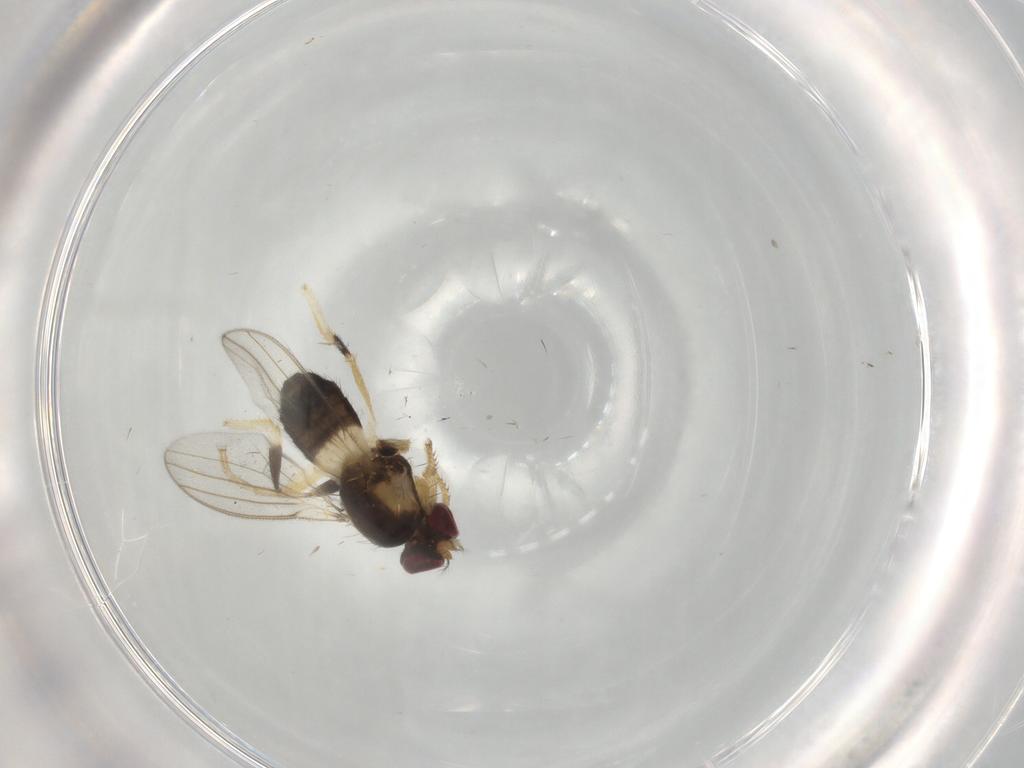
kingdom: Animalia
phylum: Arthropoda
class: Insecta
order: Diptera
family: Periscelididae
